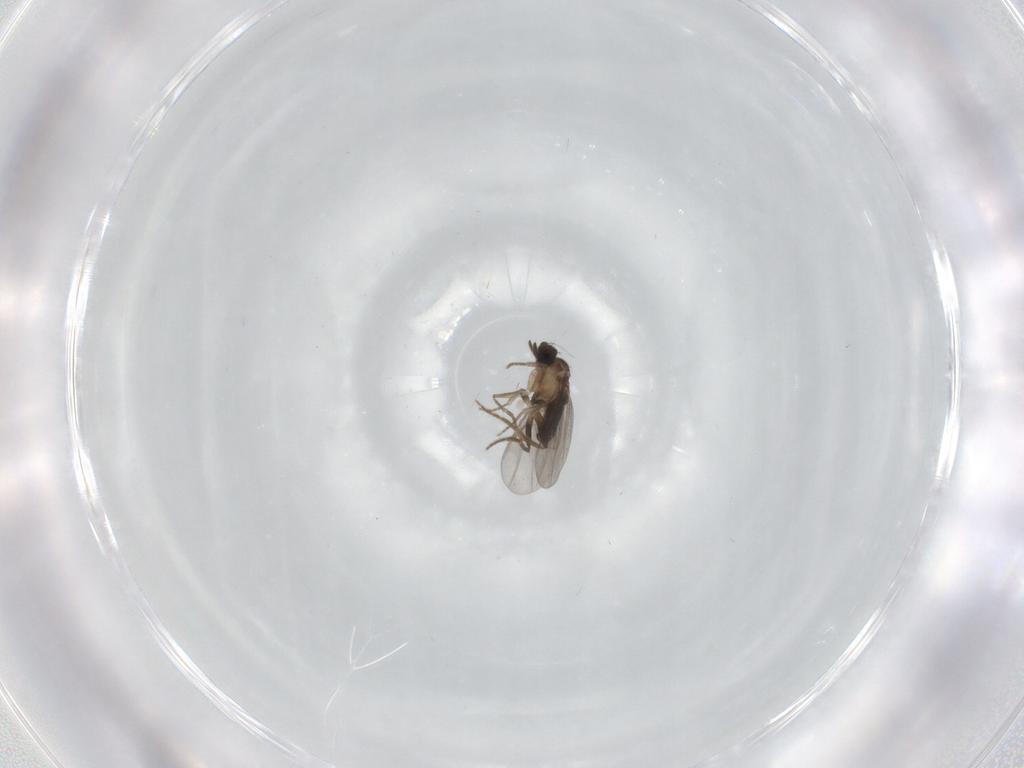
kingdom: Animalia
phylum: Arthropoda
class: Insecta
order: Diptera
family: Cecidomyiidae
